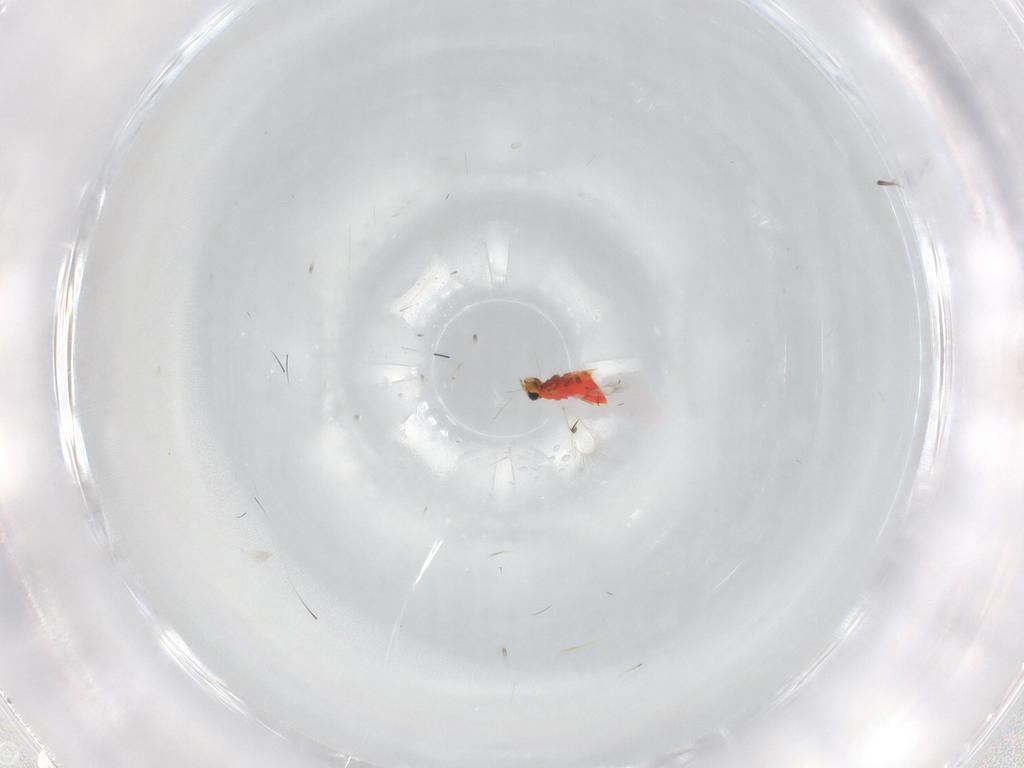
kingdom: Animalia
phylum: Arthropoda
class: Insecta
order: Hymenoptera
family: Trichogrammatidae
